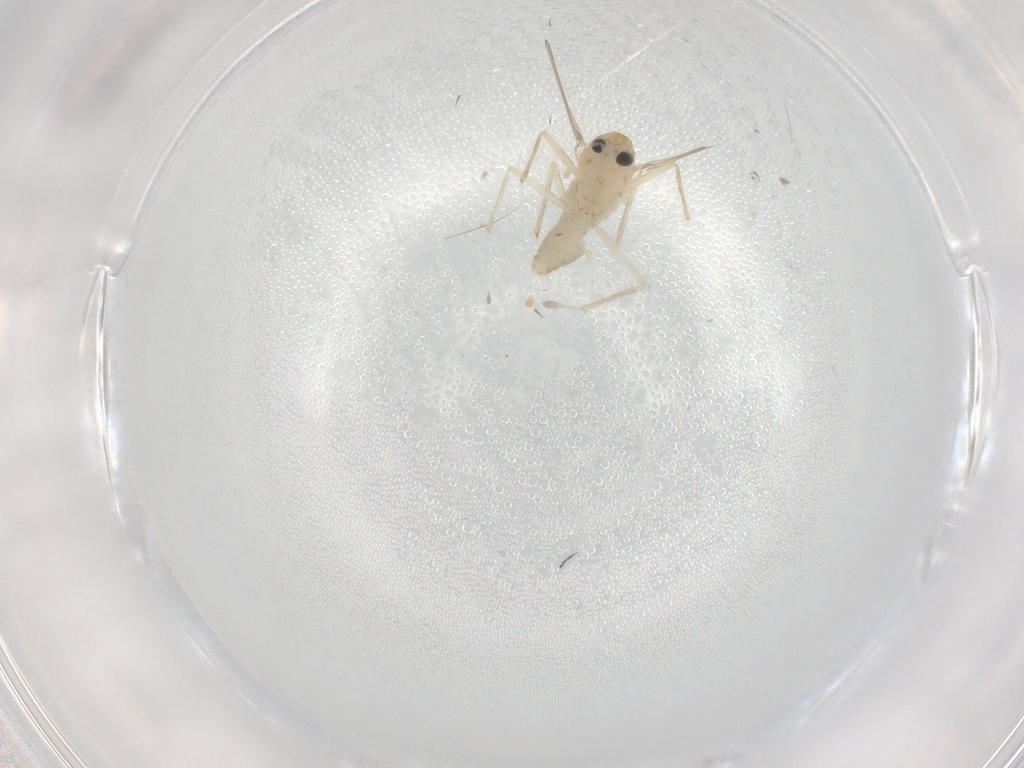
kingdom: Animalia
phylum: Arthropoda
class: Insecta
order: Diptera
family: Chironomidae
